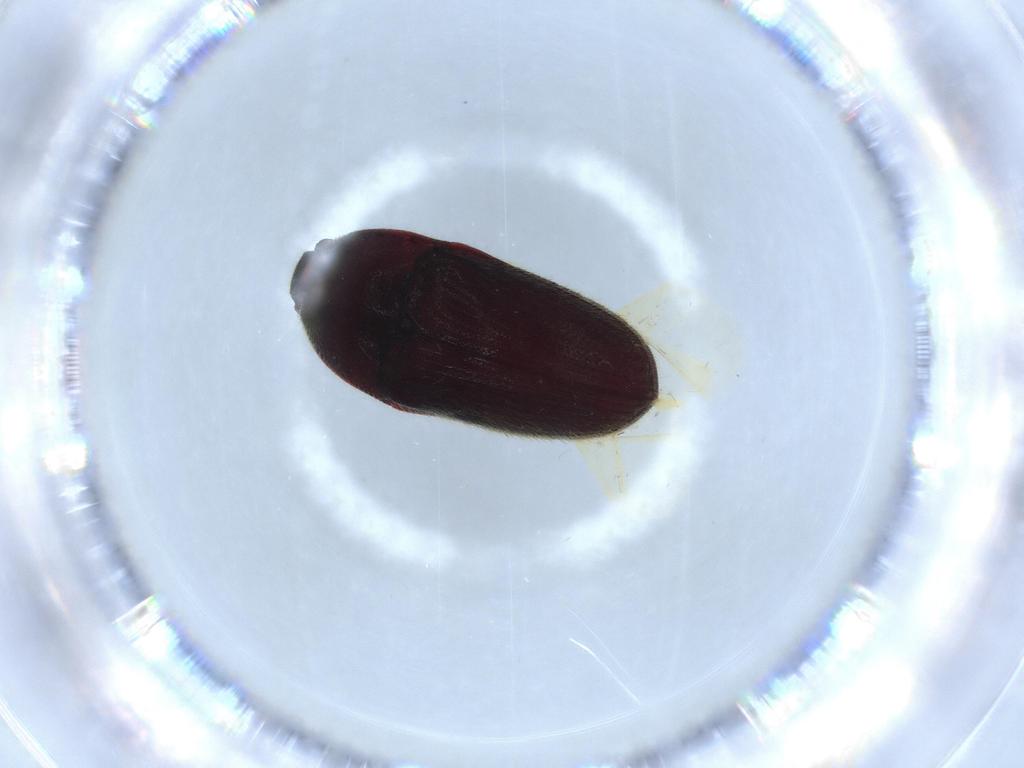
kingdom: Animalia
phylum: Arthropoda
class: Insecta
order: Coleoptera
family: Throscidae
